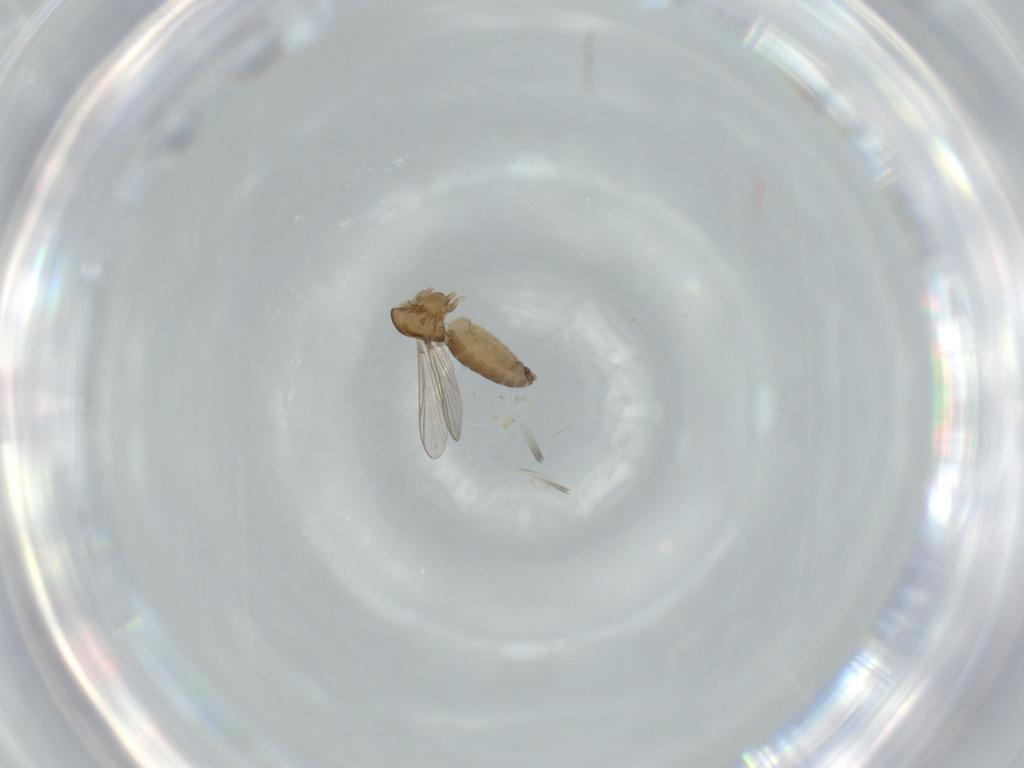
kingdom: Animalia
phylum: Arthropoda
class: Insecta
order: Diptera
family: Chironomidae
